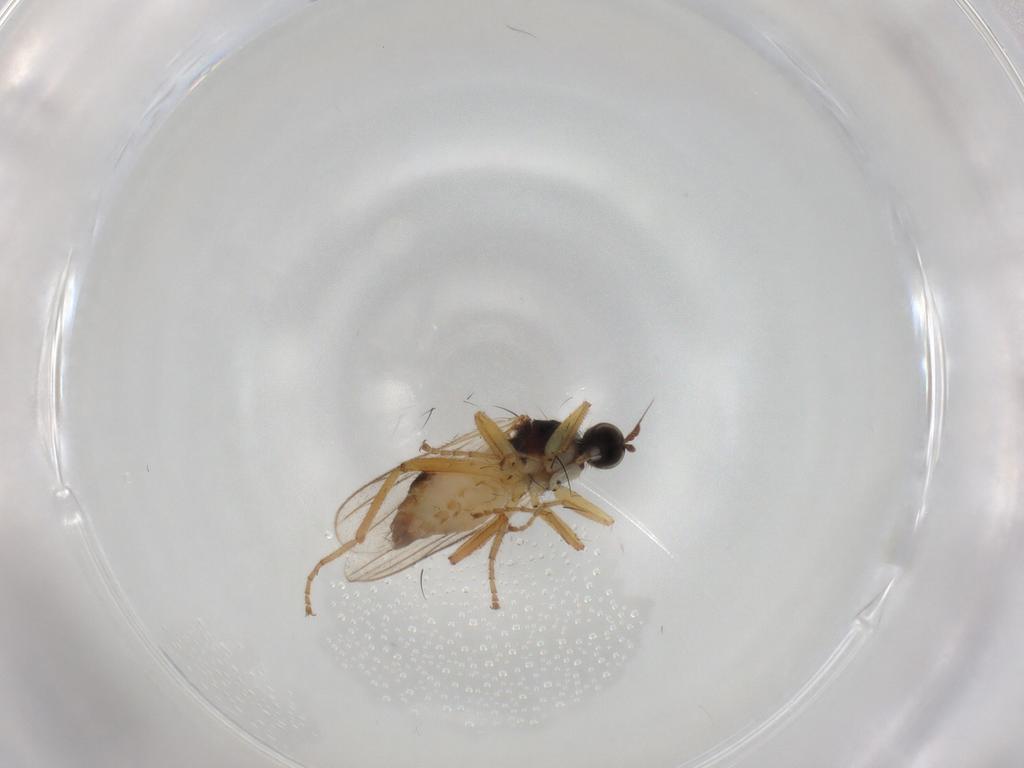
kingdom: Animalia
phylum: Arthropoda
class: Insecta
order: Diptera
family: Hybotidae
